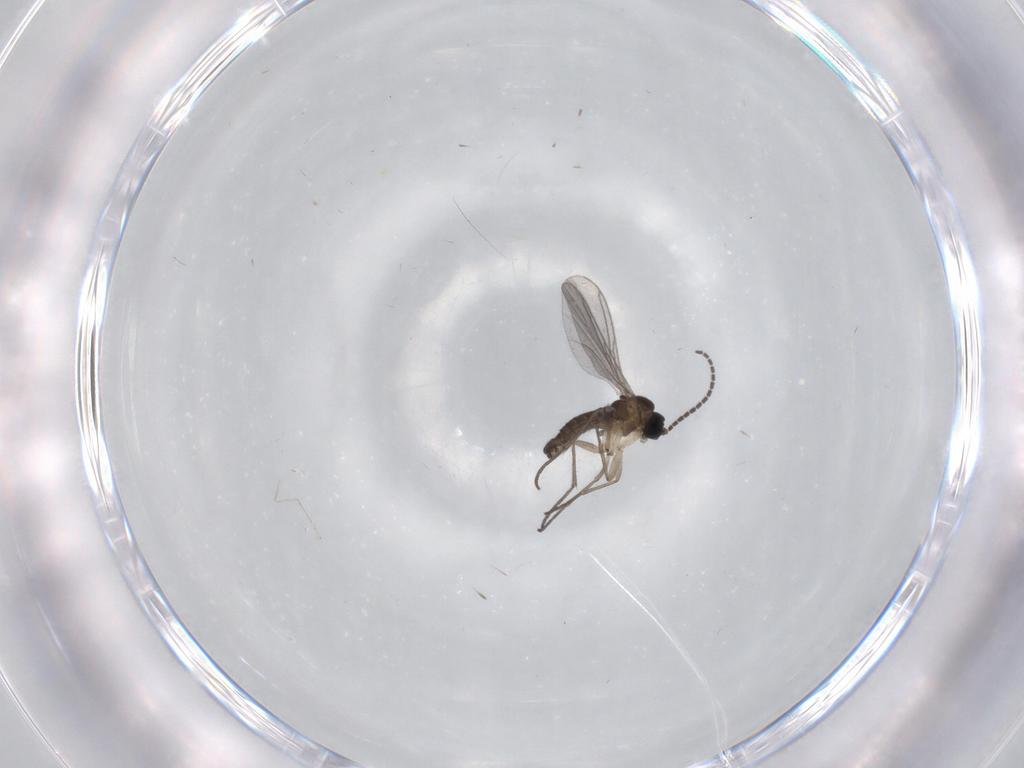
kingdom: Animalia
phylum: Arthropoda
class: Insecta
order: Diptera
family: Sciaridae
